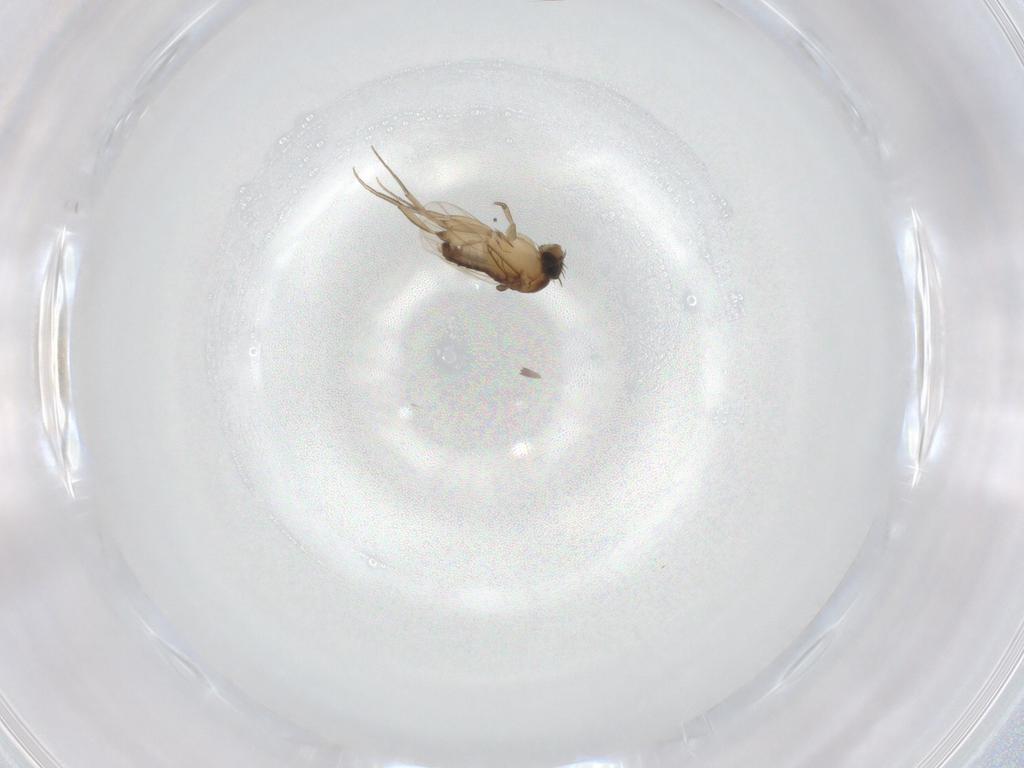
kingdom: Animalia
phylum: Arthropoda
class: Insecta
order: Diptera
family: Phoridae
